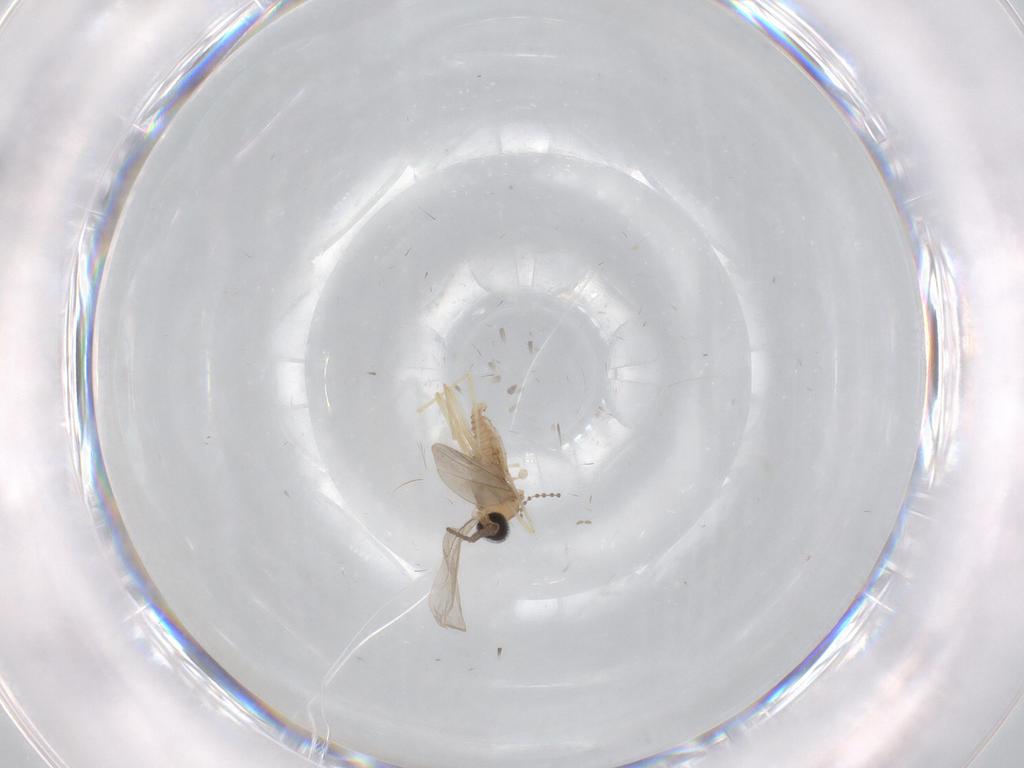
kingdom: Animalia
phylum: Arthropoda
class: Insecta
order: Diptera
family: Cecidomyiidae
